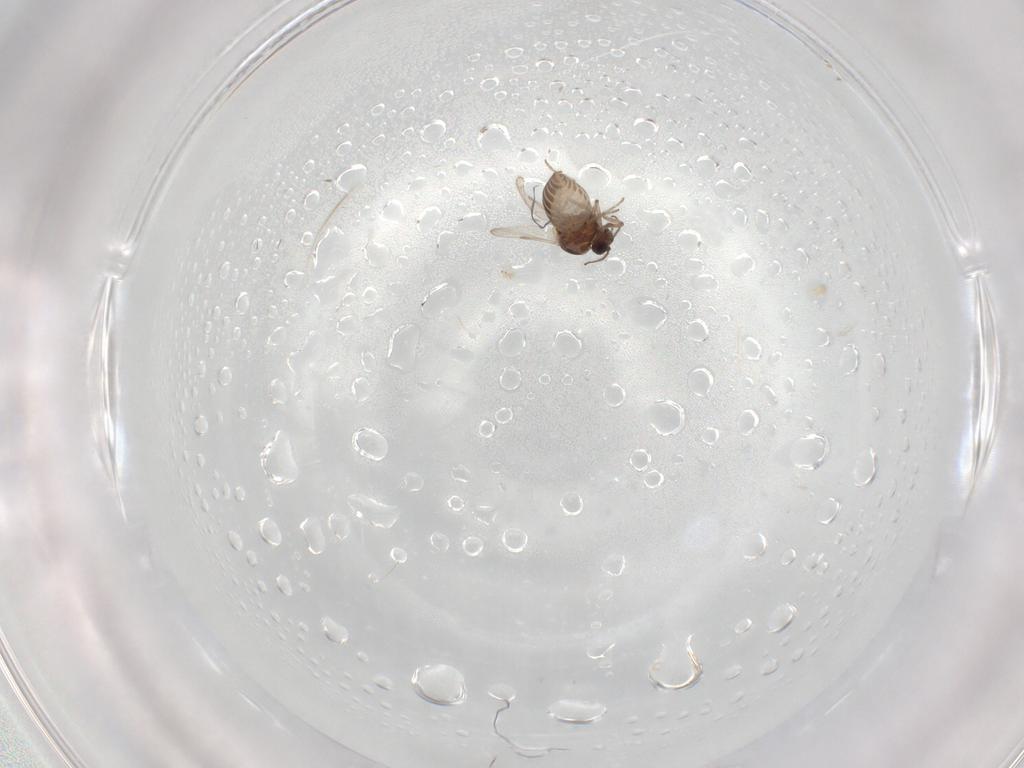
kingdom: Animalia
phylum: Arthropoda
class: Insecta
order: Diptera
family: Ceratopogonidae
